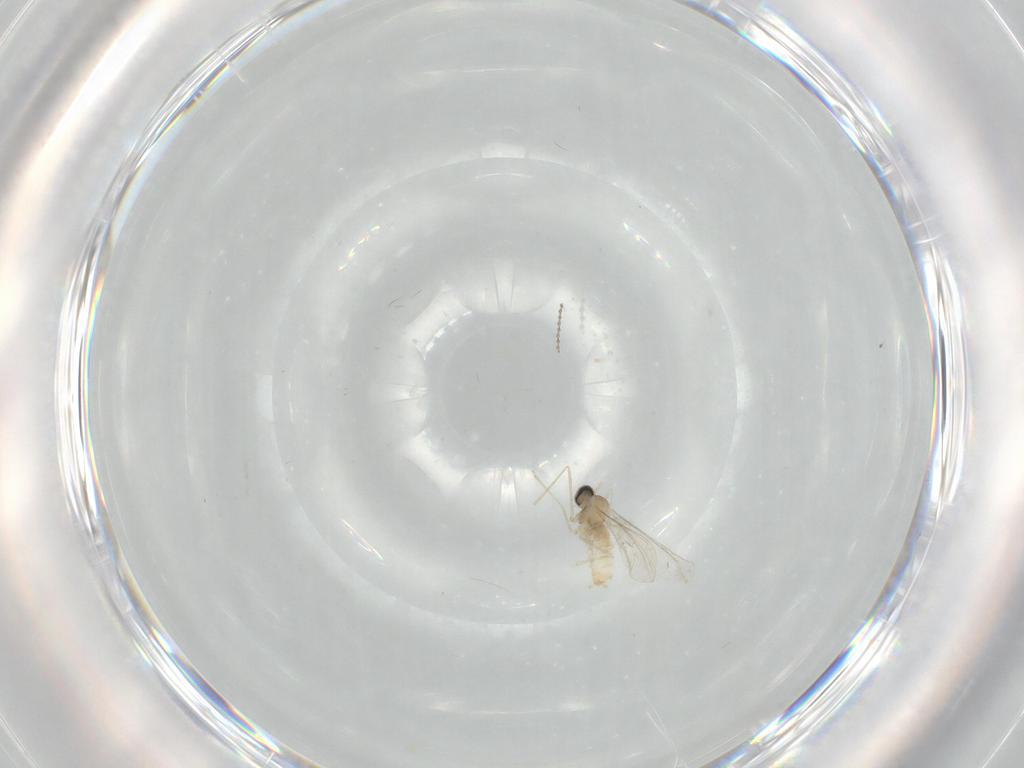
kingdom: Animalia
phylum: Arthropoda
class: Insecta
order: Diptera
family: Cecidomyiidae
